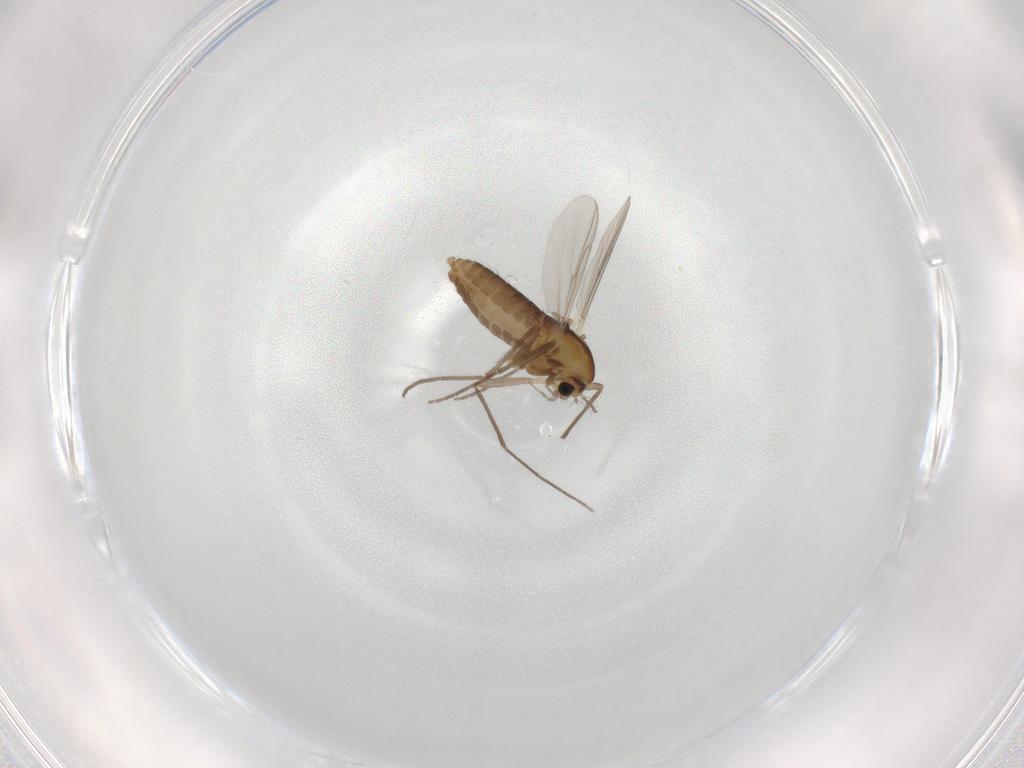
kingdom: Animalia
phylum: Arthropoda
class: Insecta
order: Diptera
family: Chironomidae
